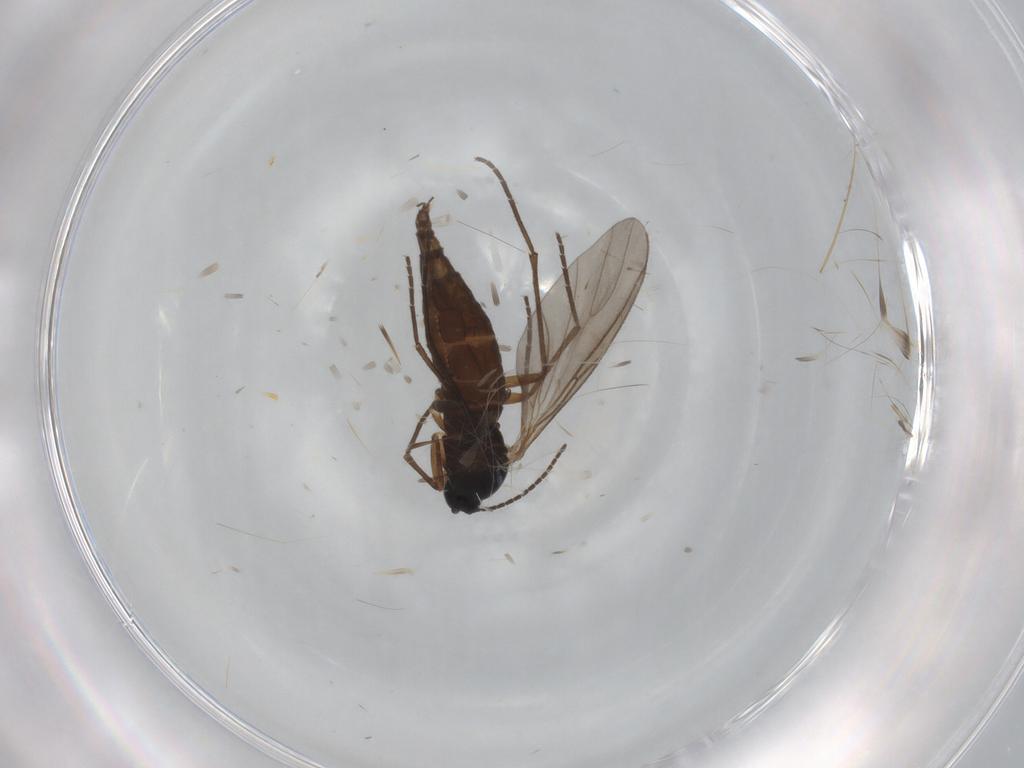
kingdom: Animalia
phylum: Arthropoda
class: Insecta
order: Diptera
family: Sciaridae
